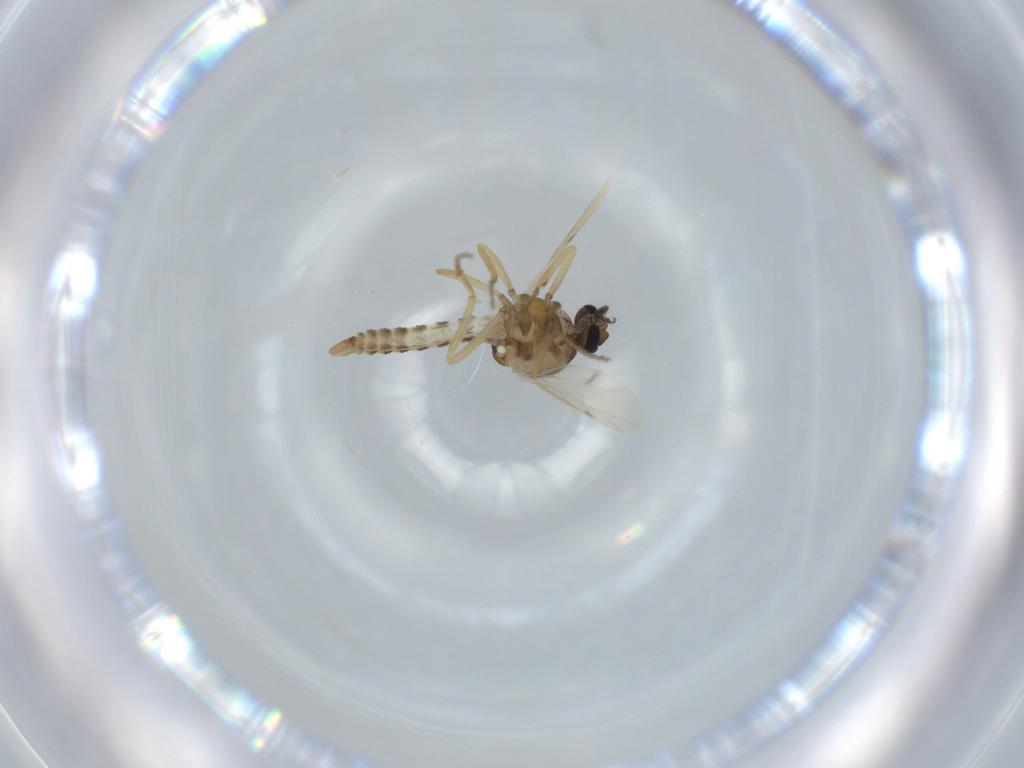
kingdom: Animalia
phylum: Arthropoda
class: Insecta
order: Diptera
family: Ceratopogonidae
